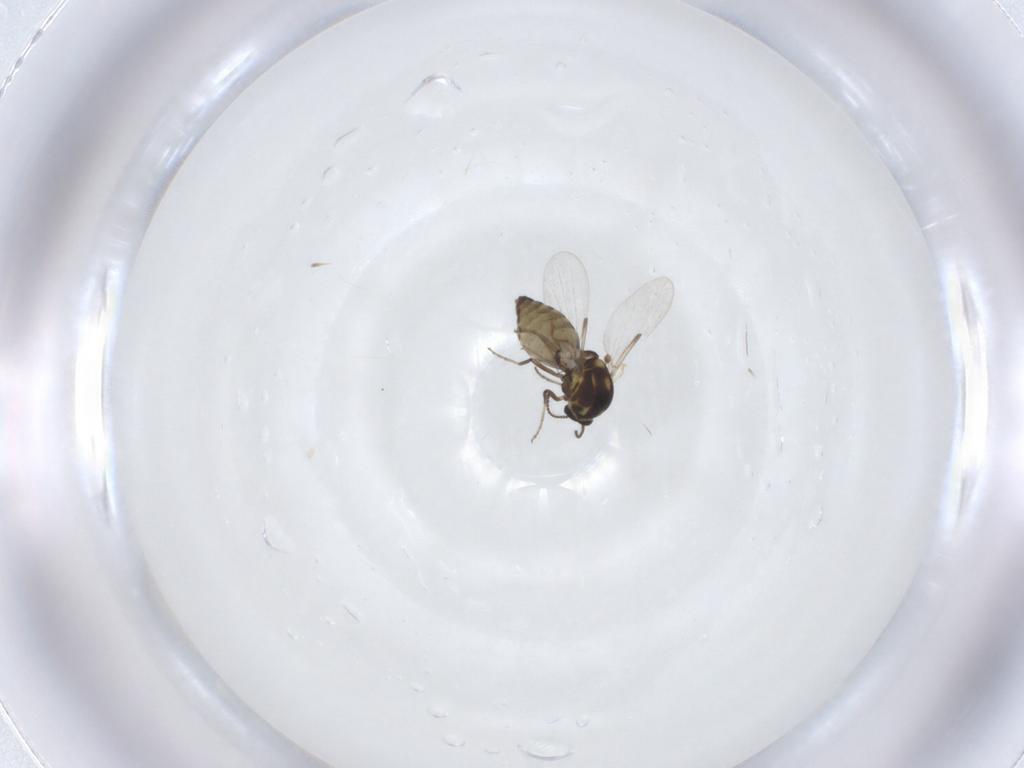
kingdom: Animalia
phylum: Arthropoda
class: Insecta
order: Diptera
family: Ceratopogonidae
